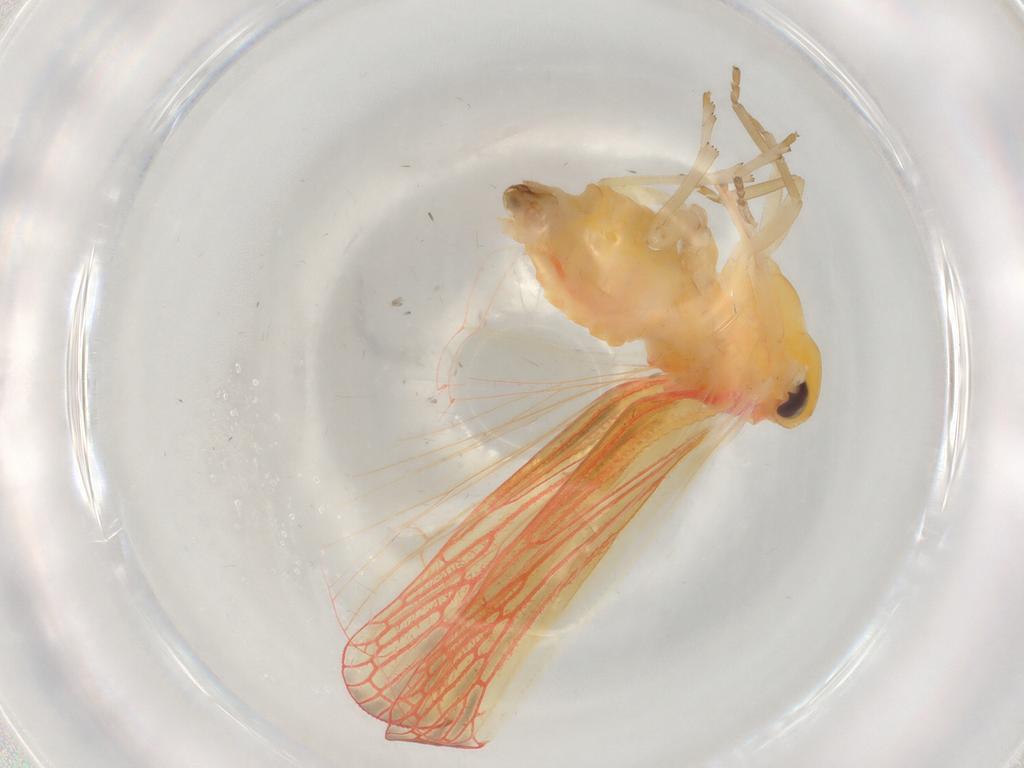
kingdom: Animalia
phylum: Arthropoda
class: Insecta
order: Hemiptera
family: Derbidae
